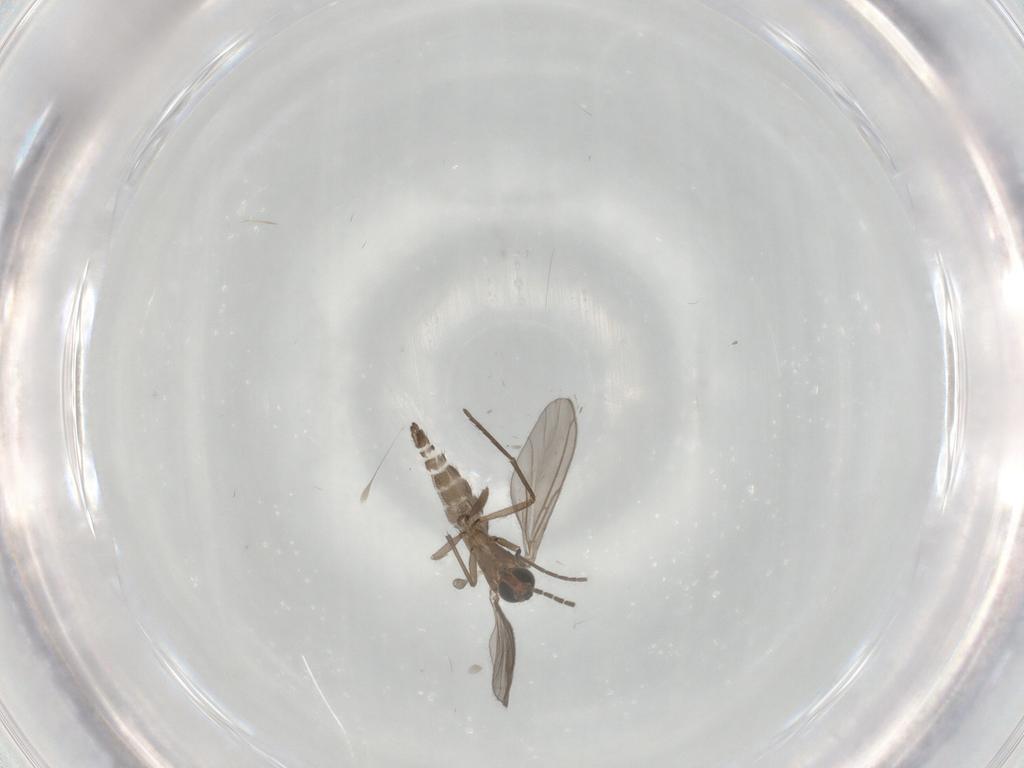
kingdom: Animalia
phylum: Arthropoda
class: Insecta
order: Diptera
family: Sciaridae
